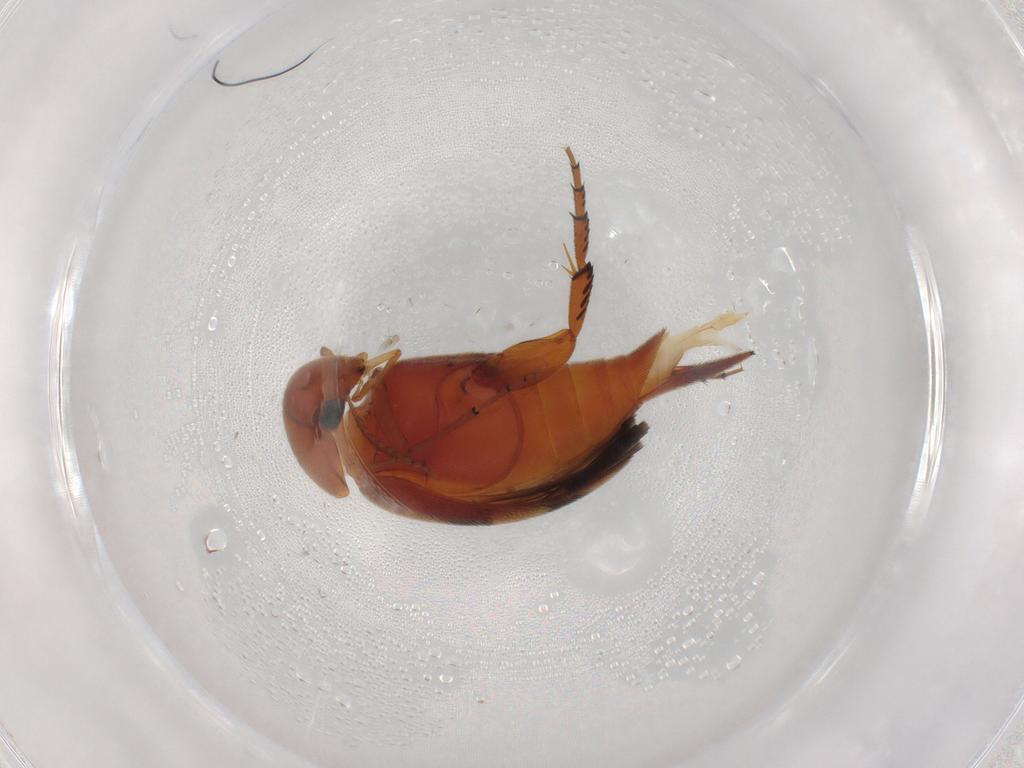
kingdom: Animalia
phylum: Arthropoda
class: Insecta
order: Coleoptera
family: Mordellidae
